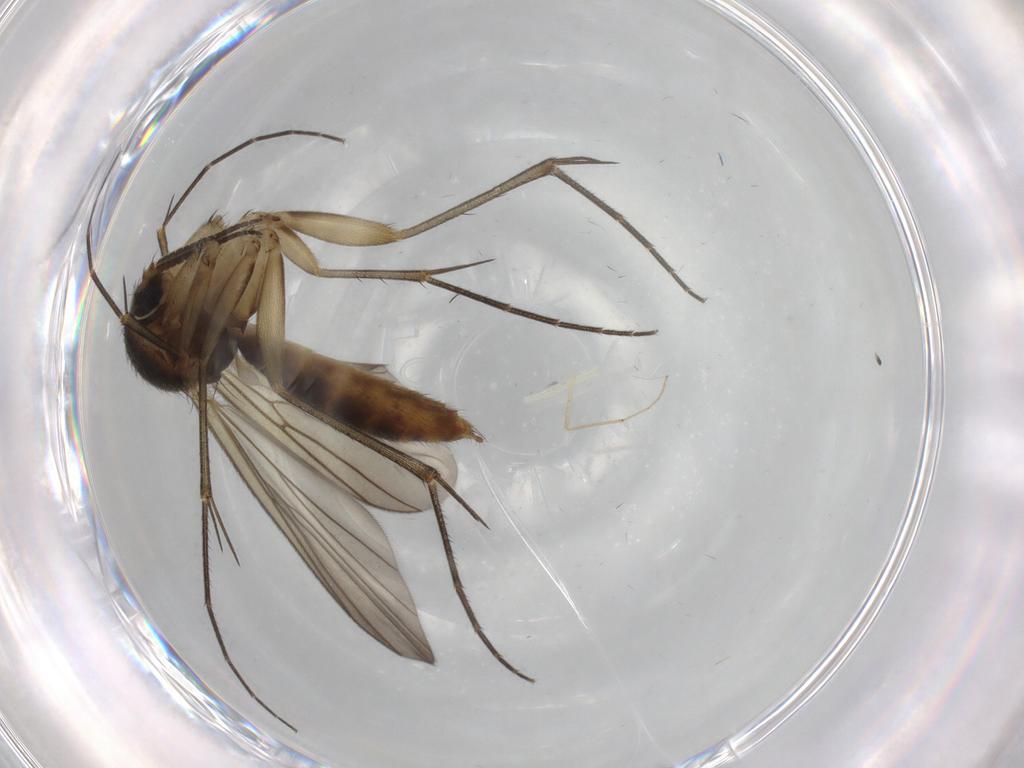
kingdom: Animalia
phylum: Arthropoda
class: Insecta
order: Diptera
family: Mycetophilidae
